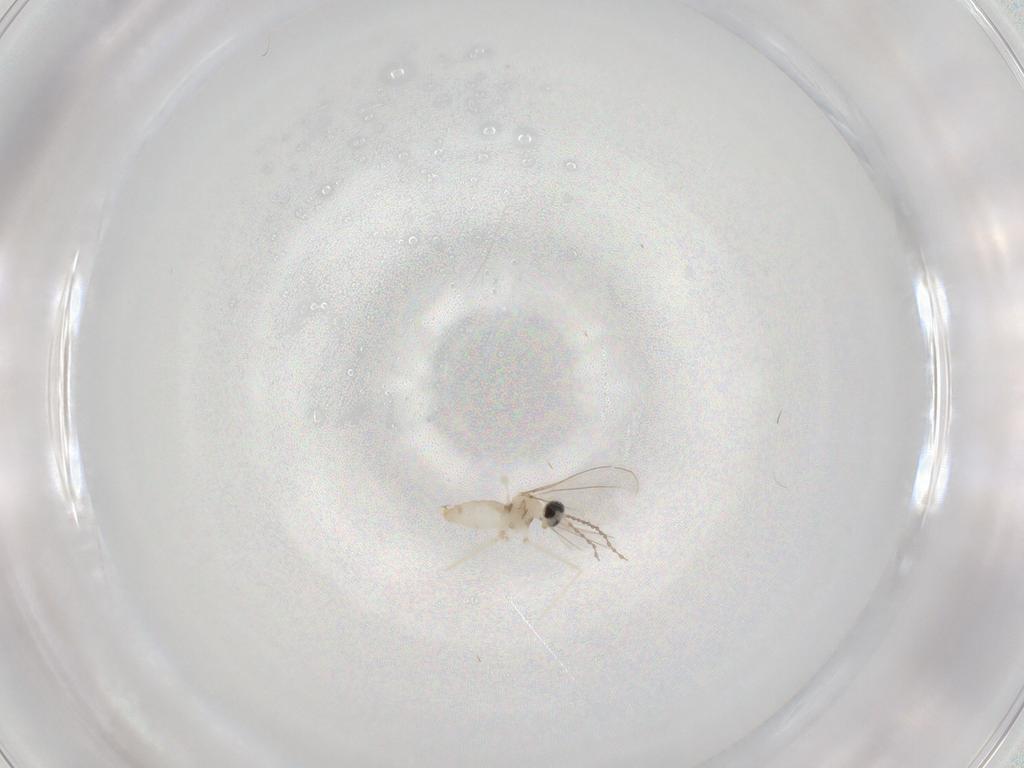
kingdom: Animalia
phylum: Arthropoda
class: Insecta
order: Diptera
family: Cecidomyiidae
